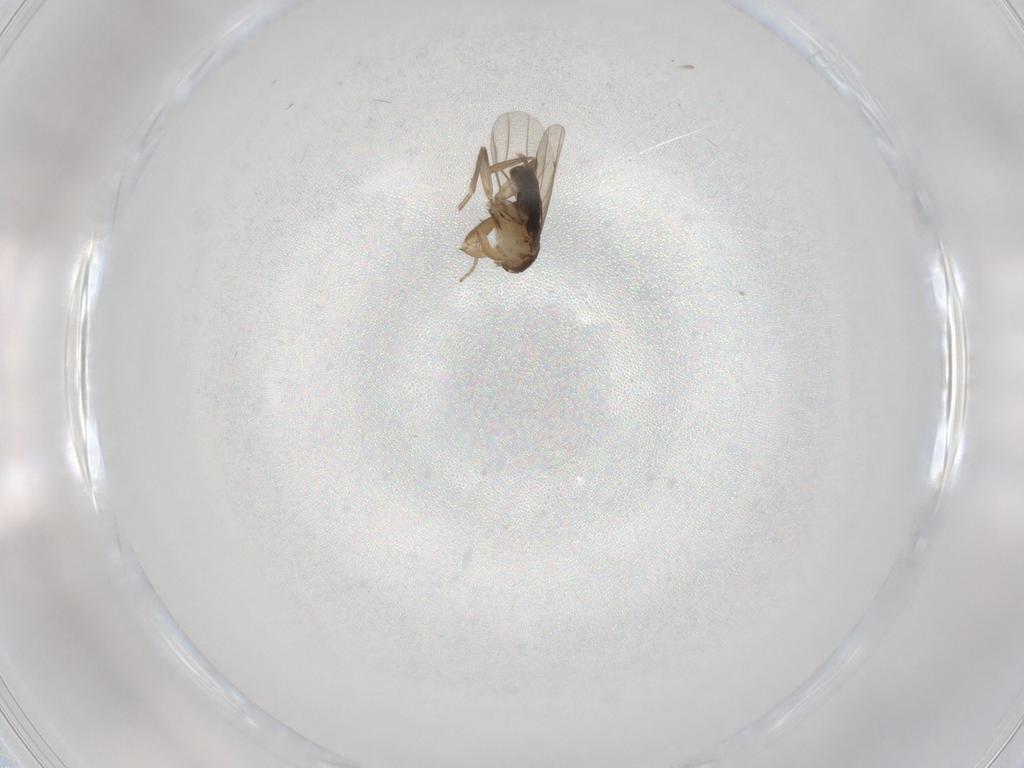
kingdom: Animalia
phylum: Arthropoda
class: Insecta
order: Diptera
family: Phoridae
